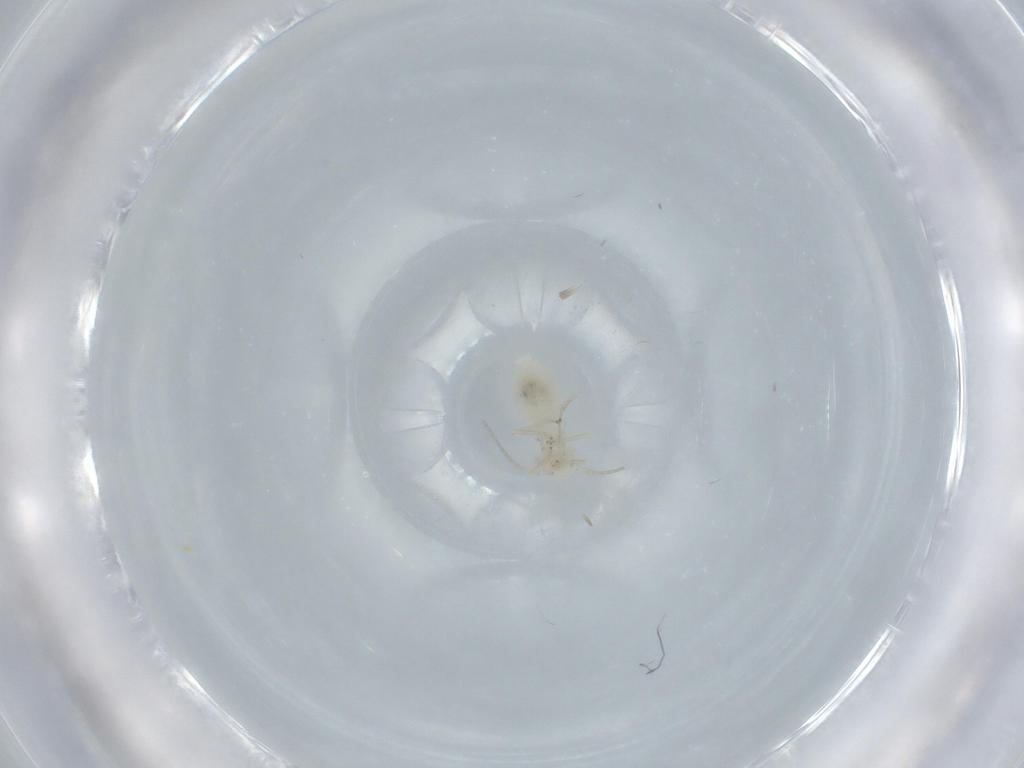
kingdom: Animalia
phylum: Arthropoda
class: Insecta
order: Psocodea
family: Caeciliusidae
